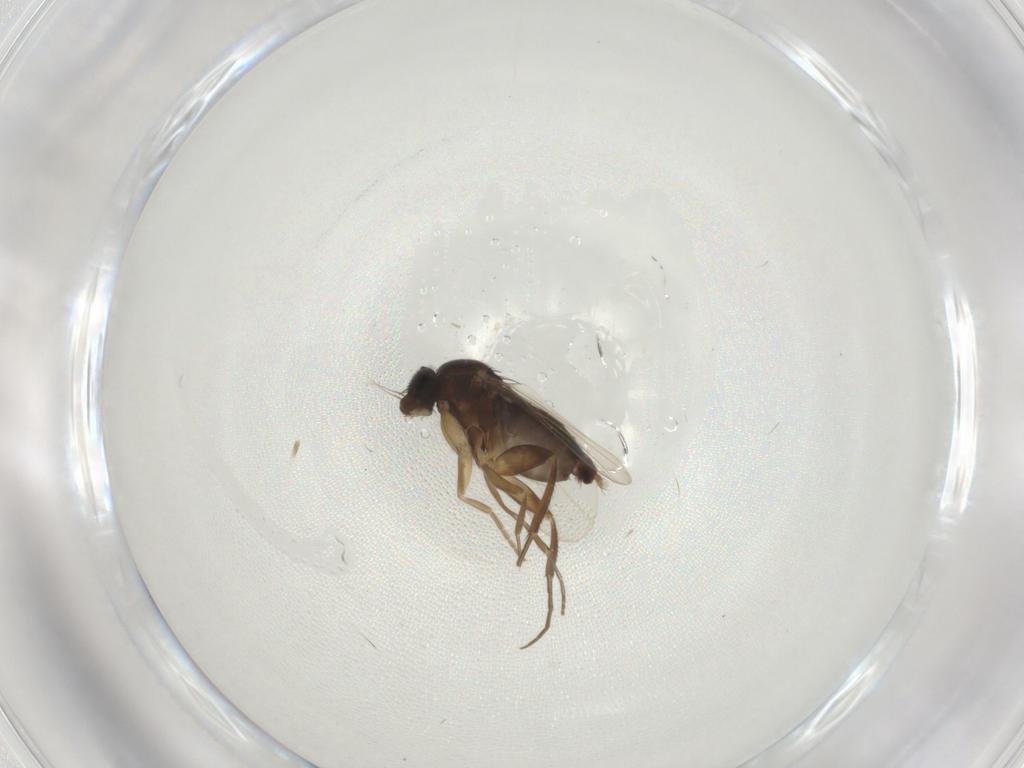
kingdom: Animalia
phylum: Arthropoda
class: Insecta
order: Diptera
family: Phoridae
